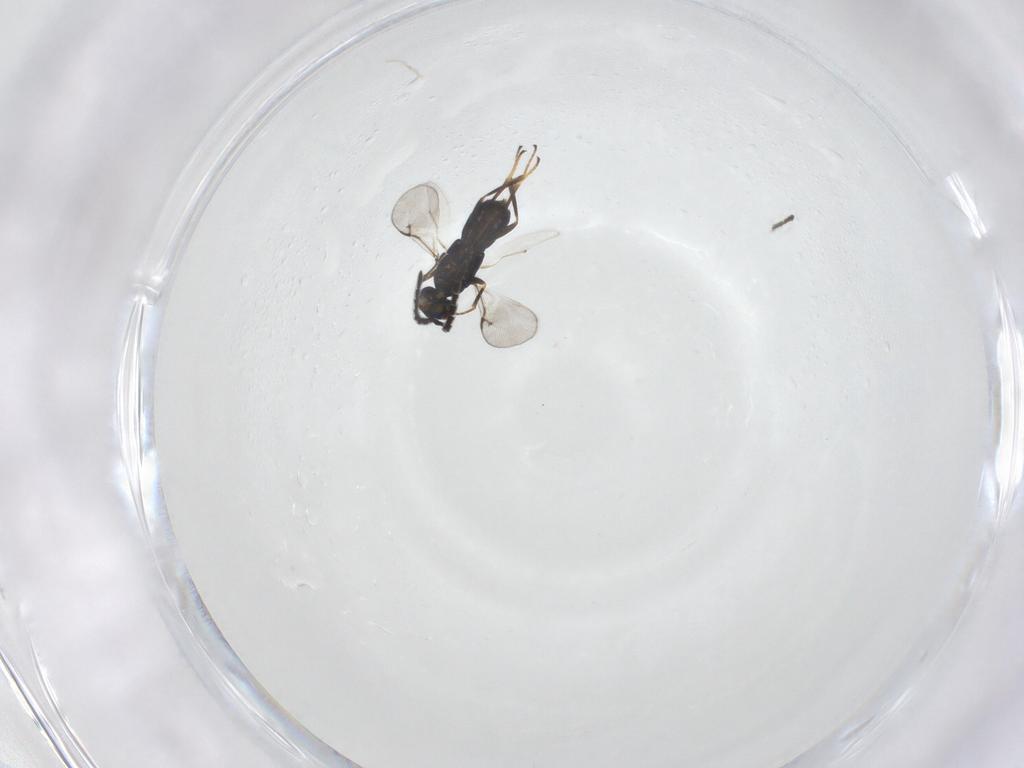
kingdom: Animalia
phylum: Arthropoda
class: Insecta
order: Hymenoptera
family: Encyrtidae
